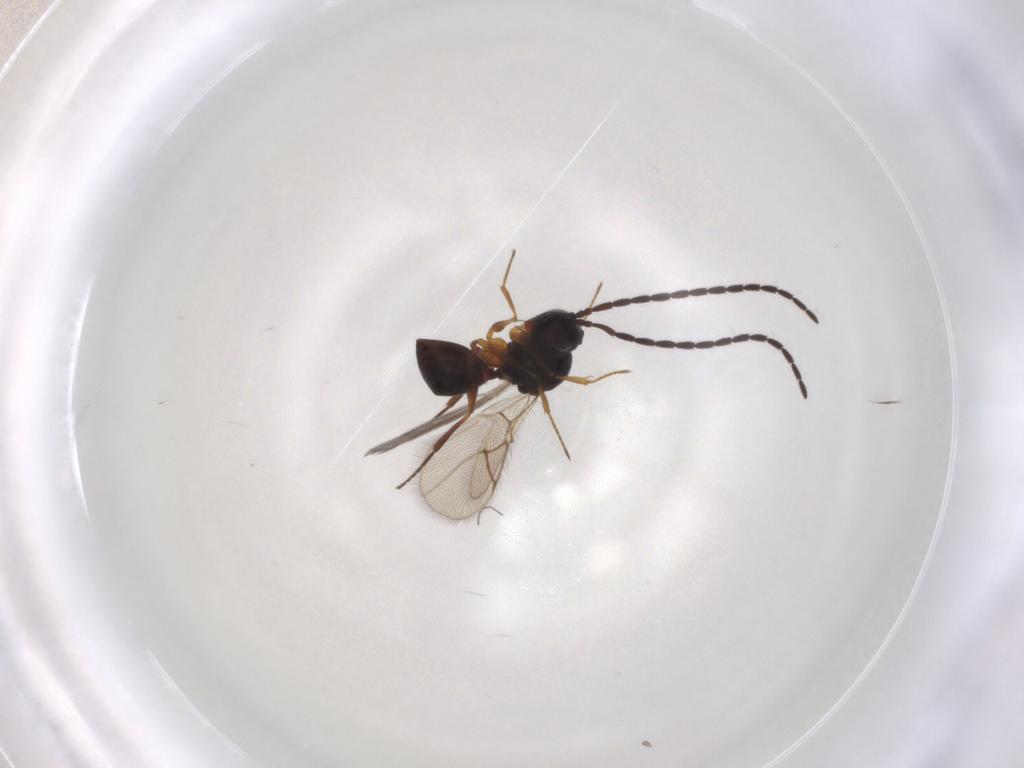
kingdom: Animalia
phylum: Arthropoda
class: Insecta
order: Hymenoptera
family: Figitidae
